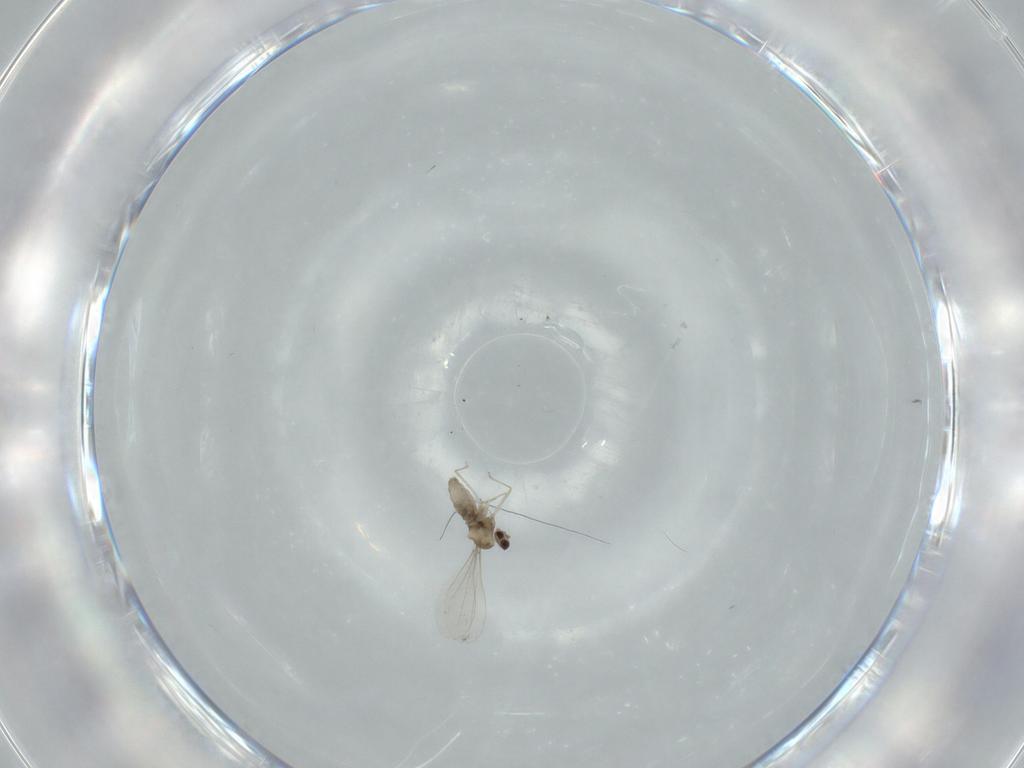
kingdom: Animalia
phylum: Arthropoda
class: Insecta
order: Diptera
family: Cecidomyiidae
